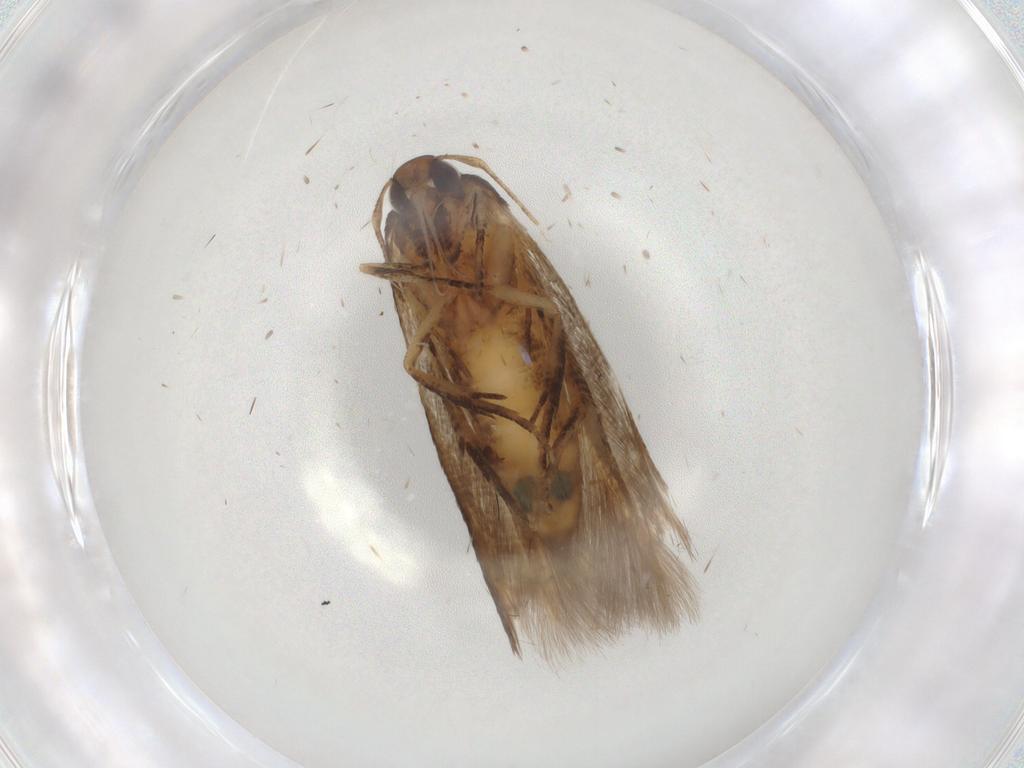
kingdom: Animalia
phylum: Arthropoda
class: Insecta
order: Lepidoptera
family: Cosmopterigidae
